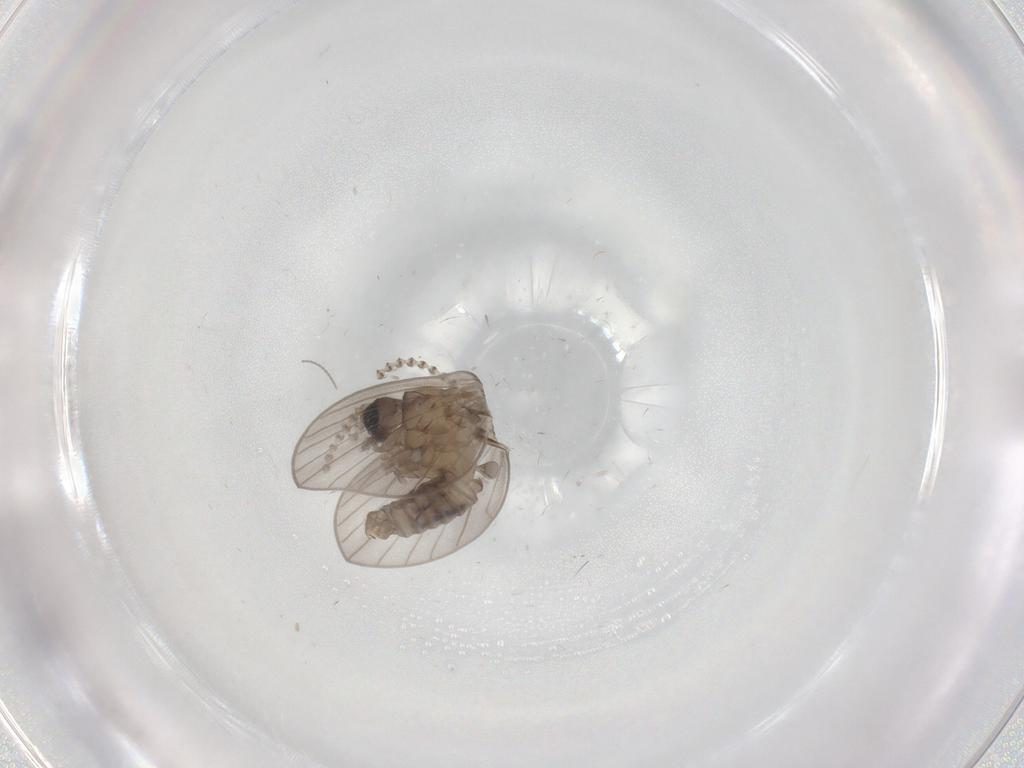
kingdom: Animalia
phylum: Arthropoda
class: Insecta
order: Diptera
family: Psychodidae
